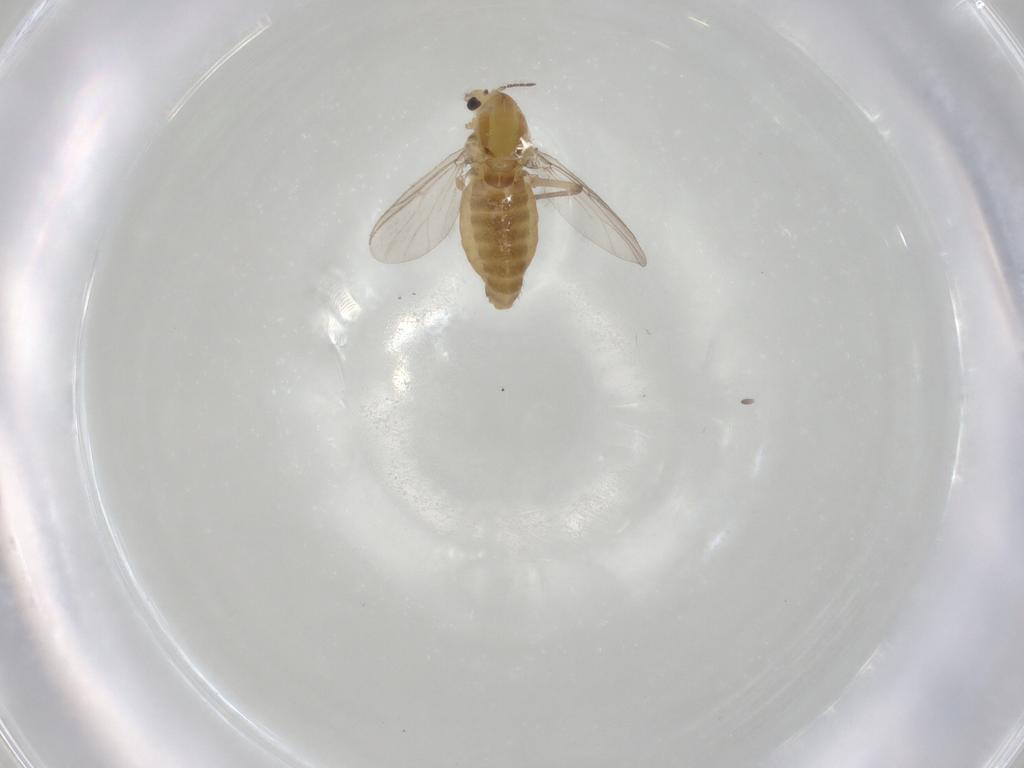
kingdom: Animalia
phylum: Arthropoda
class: Insecta
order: Diptera
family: Chironomidae
